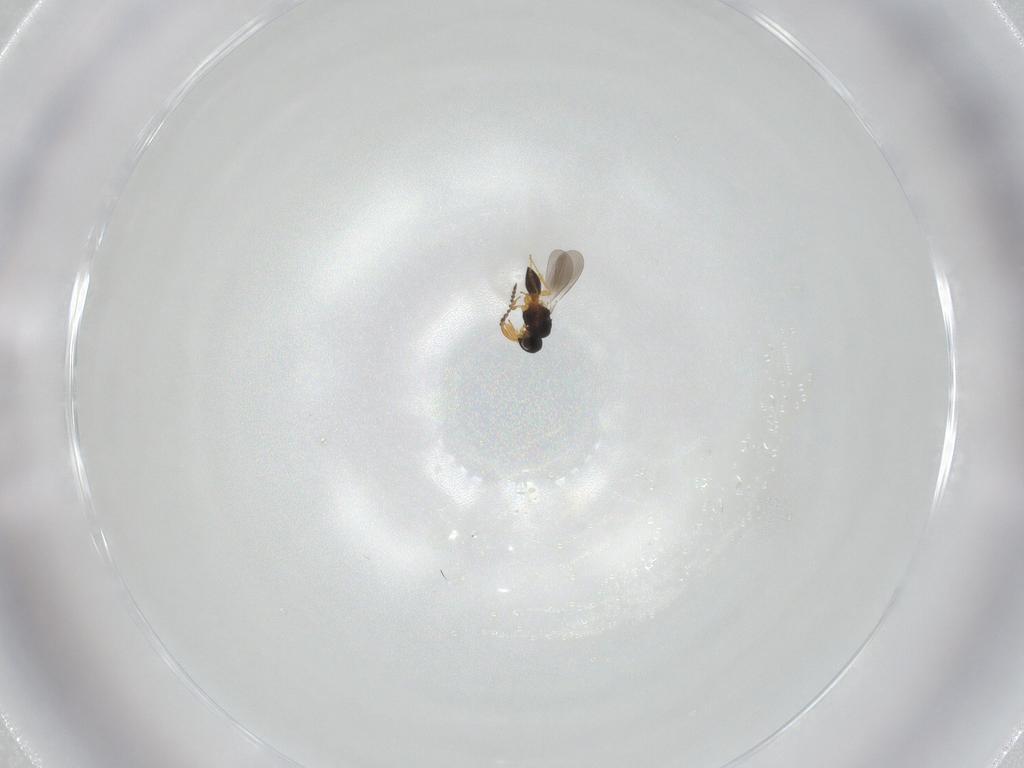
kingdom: Animalia
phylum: Arthropoda
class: Insecta
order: Hymenoptera
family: Platygastridae
